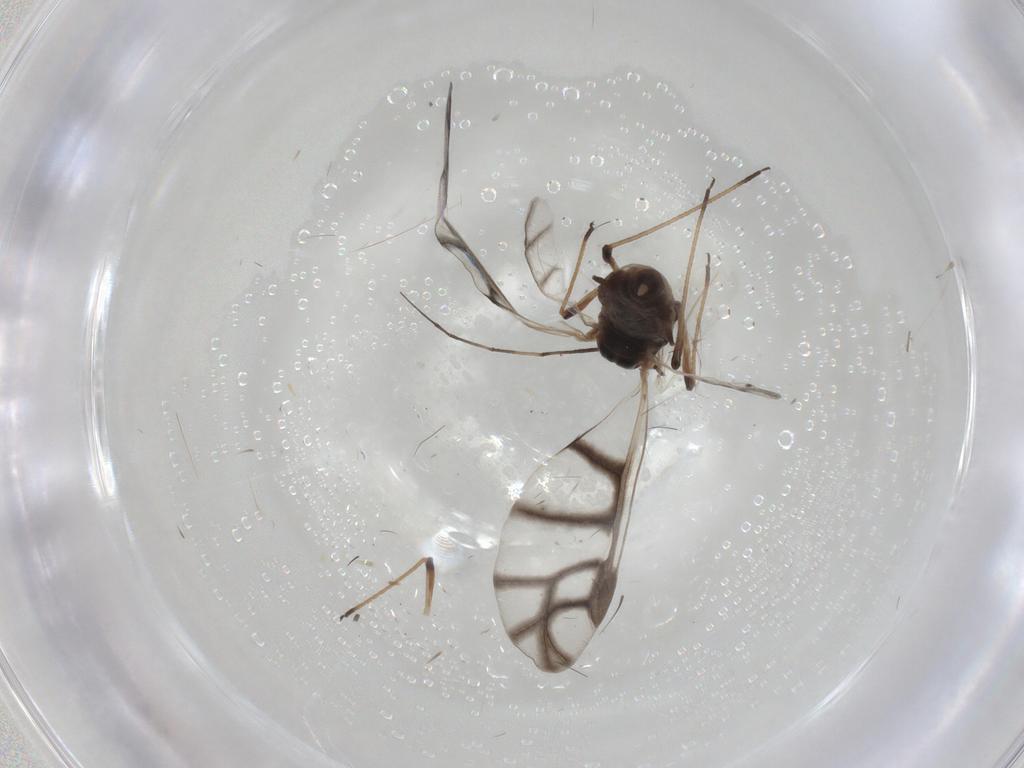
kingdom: Animalia
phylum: Arthropoda
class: Insecta
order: Hemiptera
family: Aphididae
